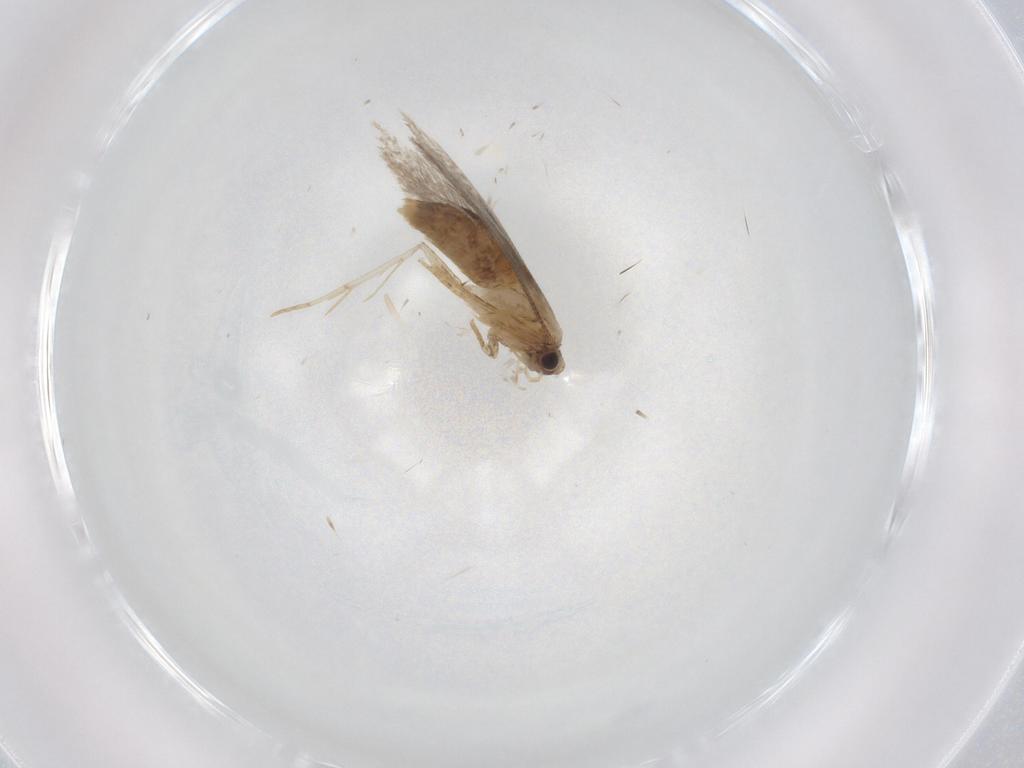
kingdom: Animalia
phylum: Arthropoda
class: Insecta
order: Lepidoptera
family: Tineidae
